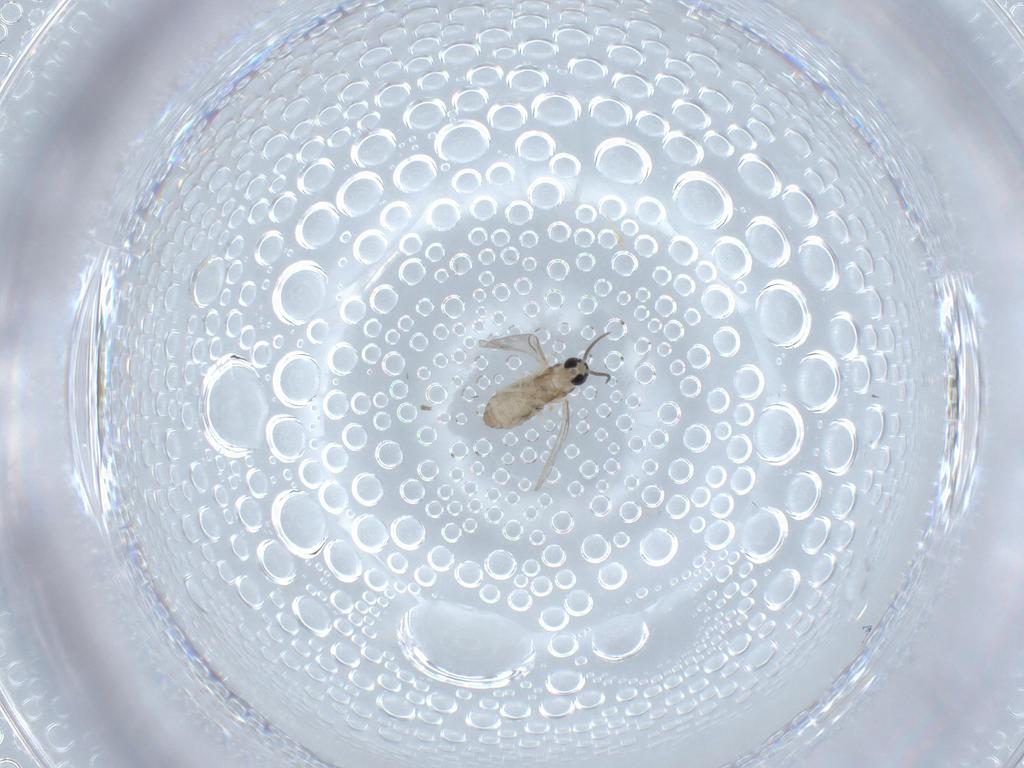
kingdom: Animalia
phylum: Arthropoda
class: Insecta
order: Diptera
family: Cecidomyiidae
